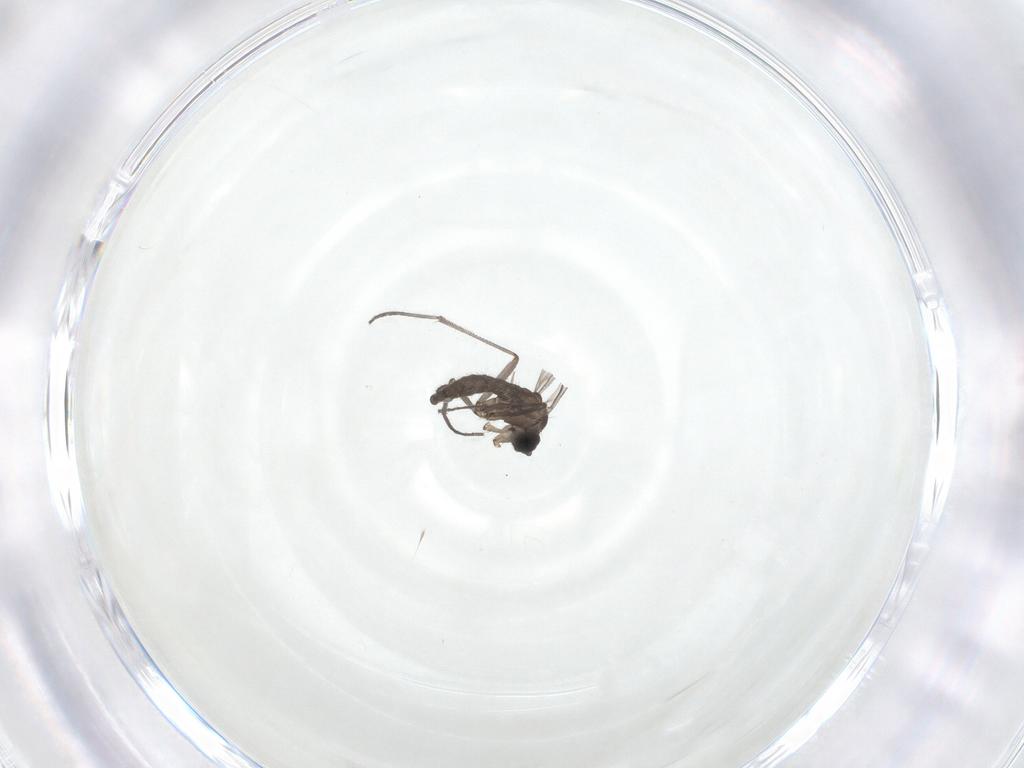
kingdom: Animalia
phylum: Arthropoda
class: Insecta
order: Diptera
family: Sciaridae
